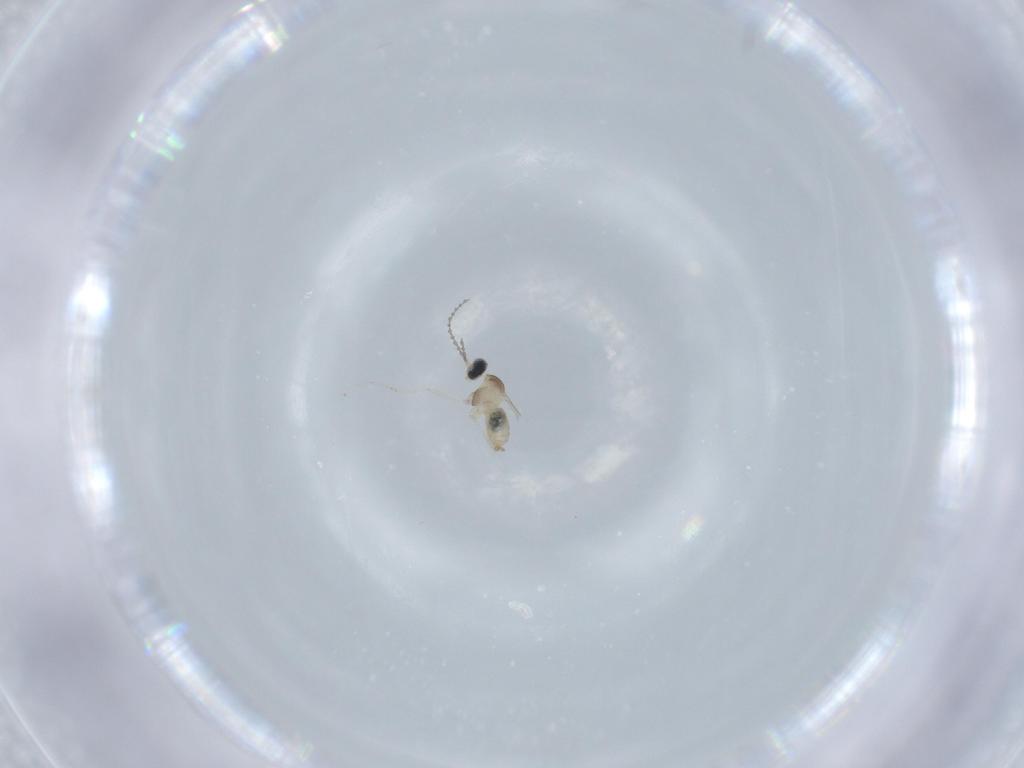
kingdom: Animalia
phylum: Arthropoda
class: Insecta
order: Diptera
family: Cecidomyiidae
